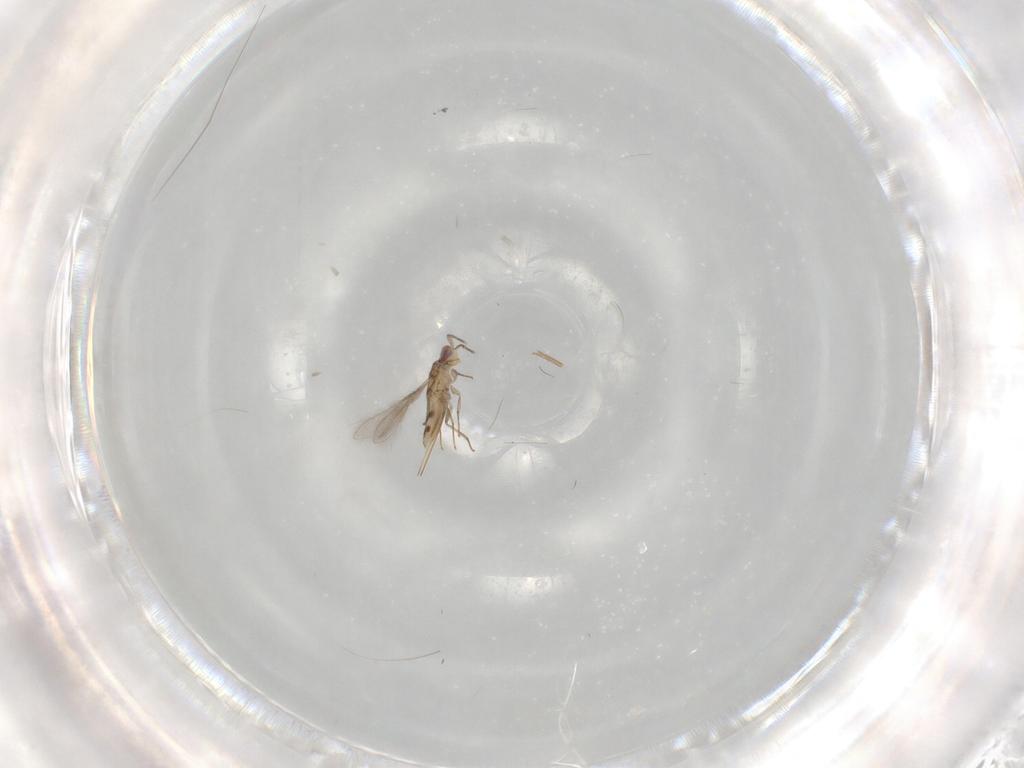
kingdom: Animalia
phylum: Arthropoda
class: Insecta
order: Hymenoptera
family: Mymaridae
